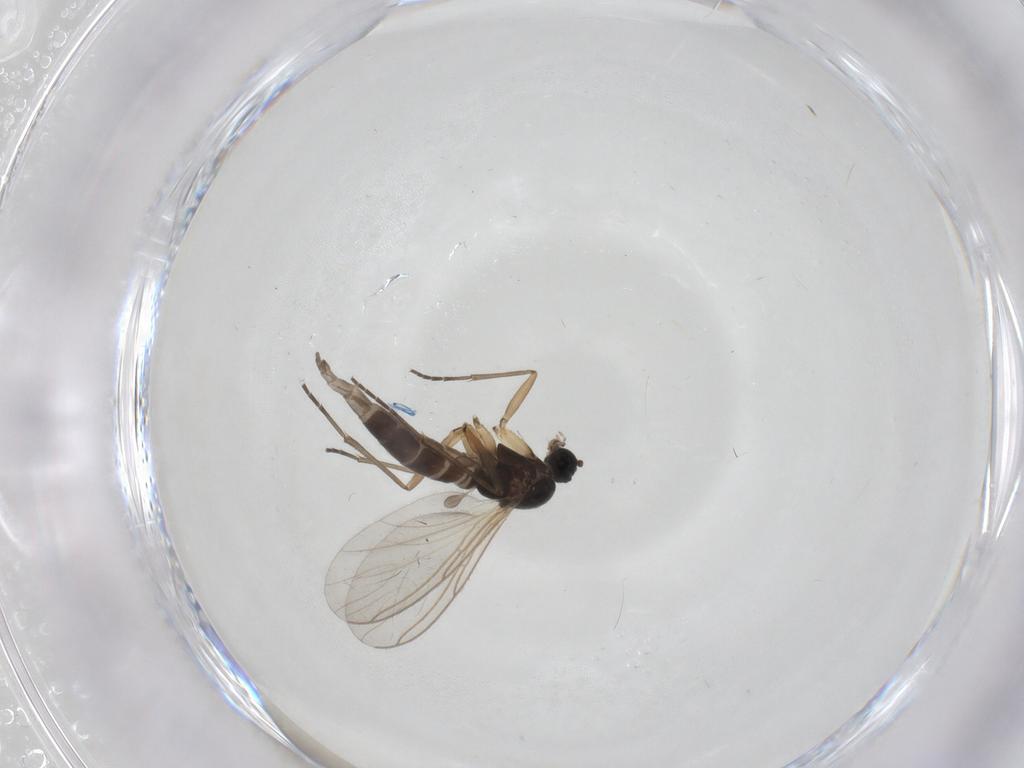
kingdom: Animalia
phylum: Arthropoda
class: Insecta
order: Diptera
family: Sciaridae
